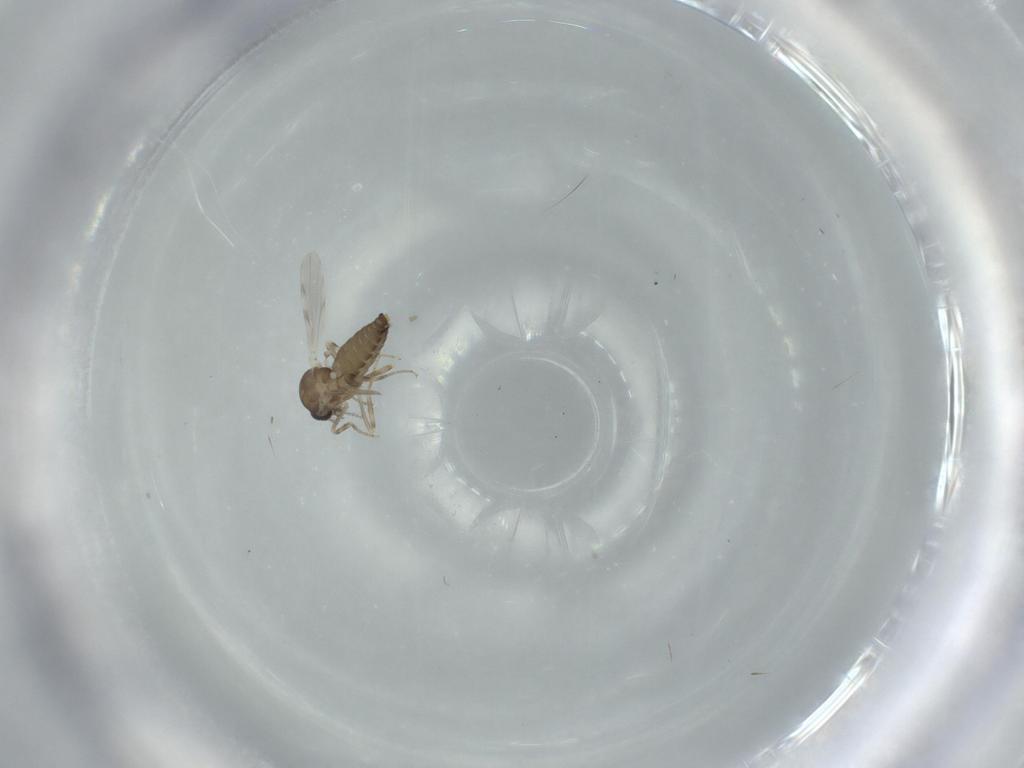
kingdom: Animalia
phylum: Arthropoda
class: Insecta
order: Diptera
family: Ceratopogonidae
